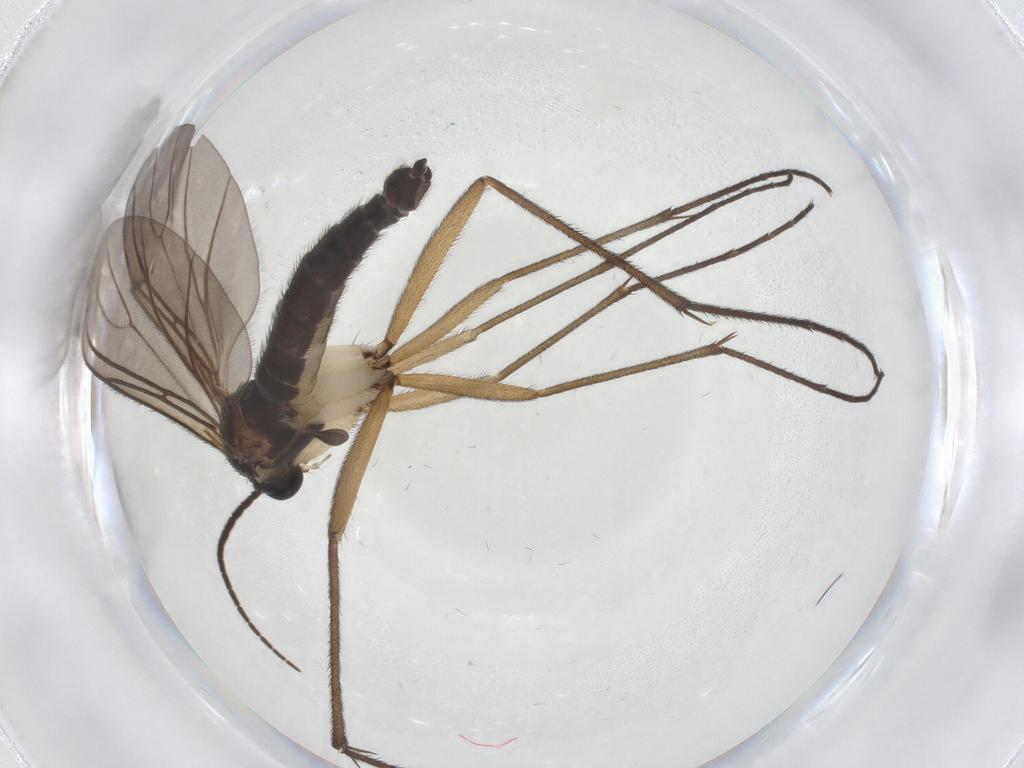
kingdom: Animalia
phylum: Arthropoda
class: Insecta
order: Diptera
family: Sciaridae
